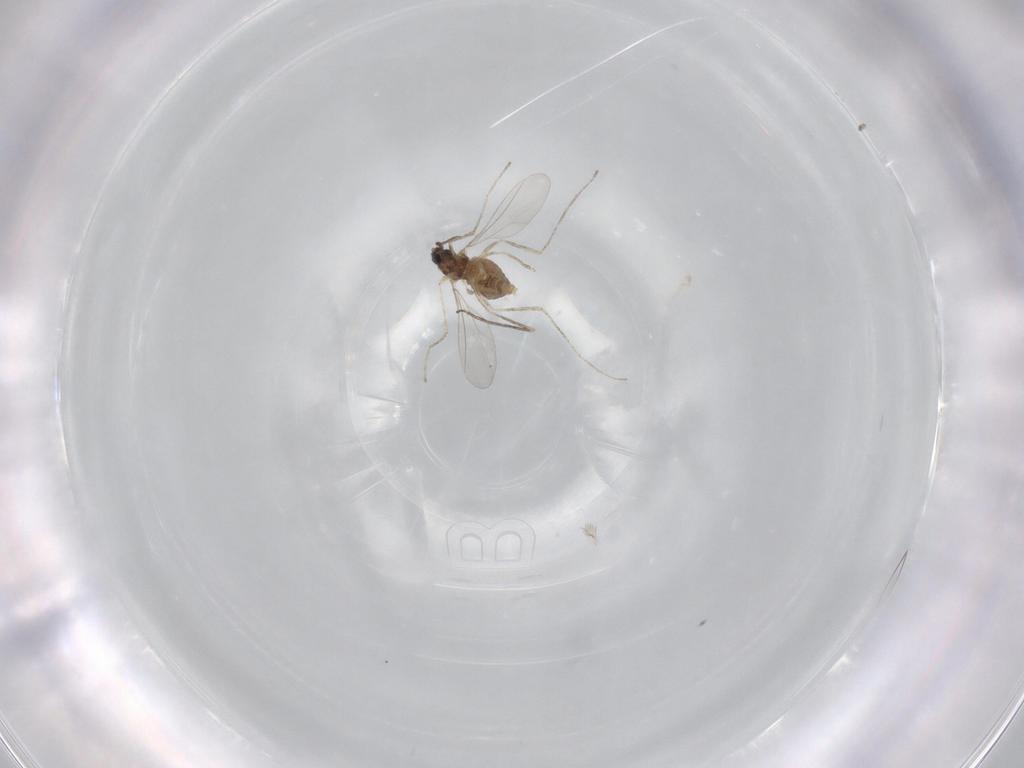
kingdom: Animalia
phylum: Arthropoda
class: Insecta
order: Diptera
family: Cecidomyiidae
